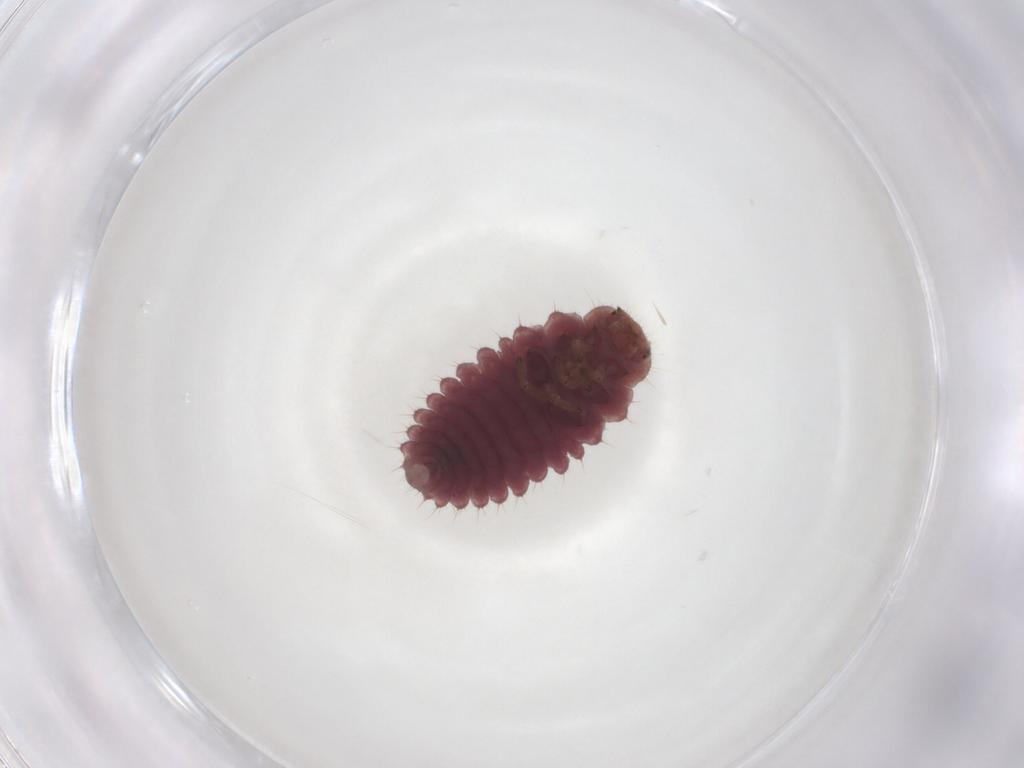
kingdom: Animalia
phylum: Arthropoda
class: Insecta
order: Coleoptera
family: Coccinellidae
